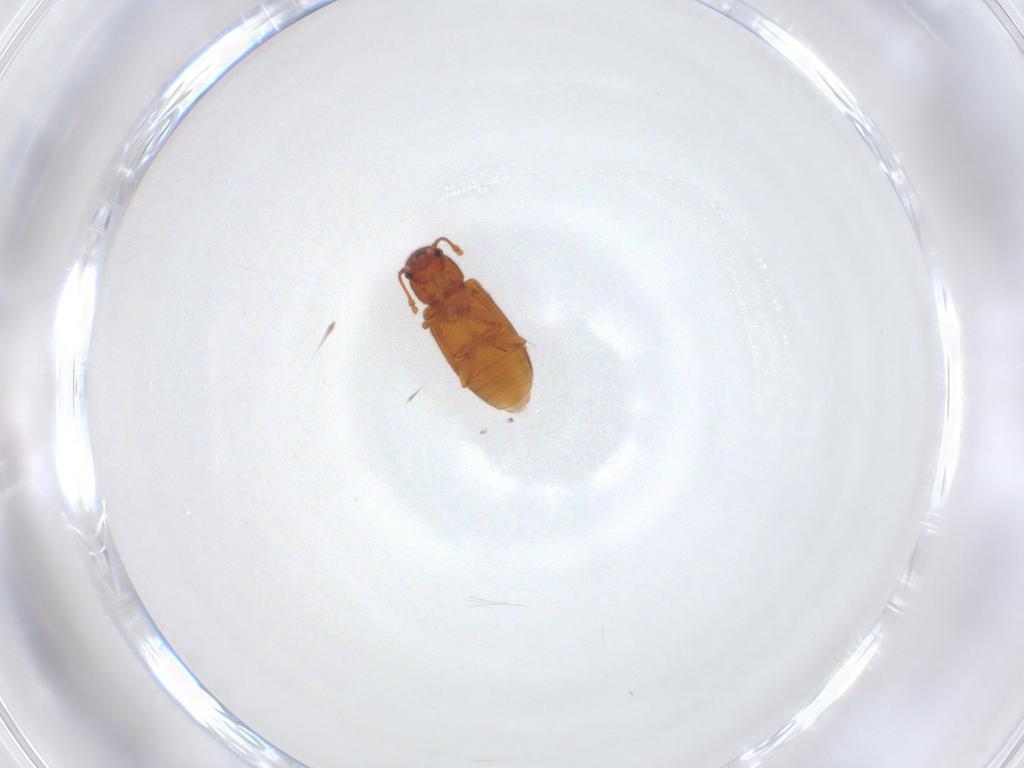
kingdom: Animalia
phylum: Arthropoda
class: Insecta
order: Coleoptera
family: Mycetophagidae
